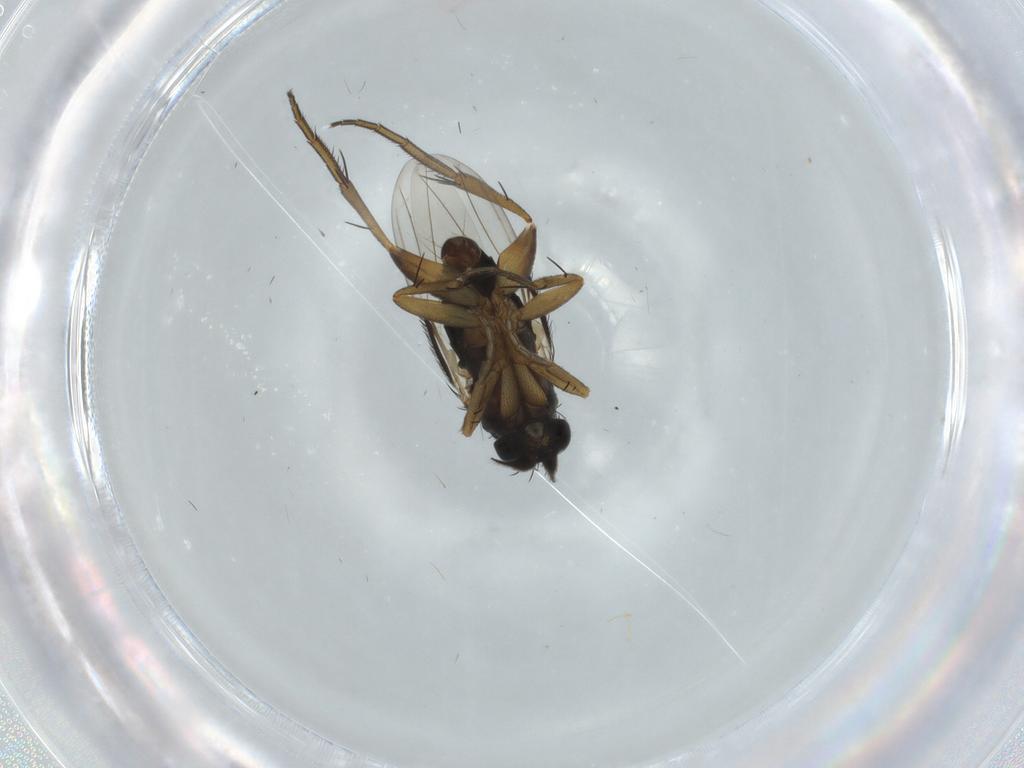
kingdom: Animalia
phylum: Arthropoda
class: Insecta
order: Diptera
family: Phoridae
